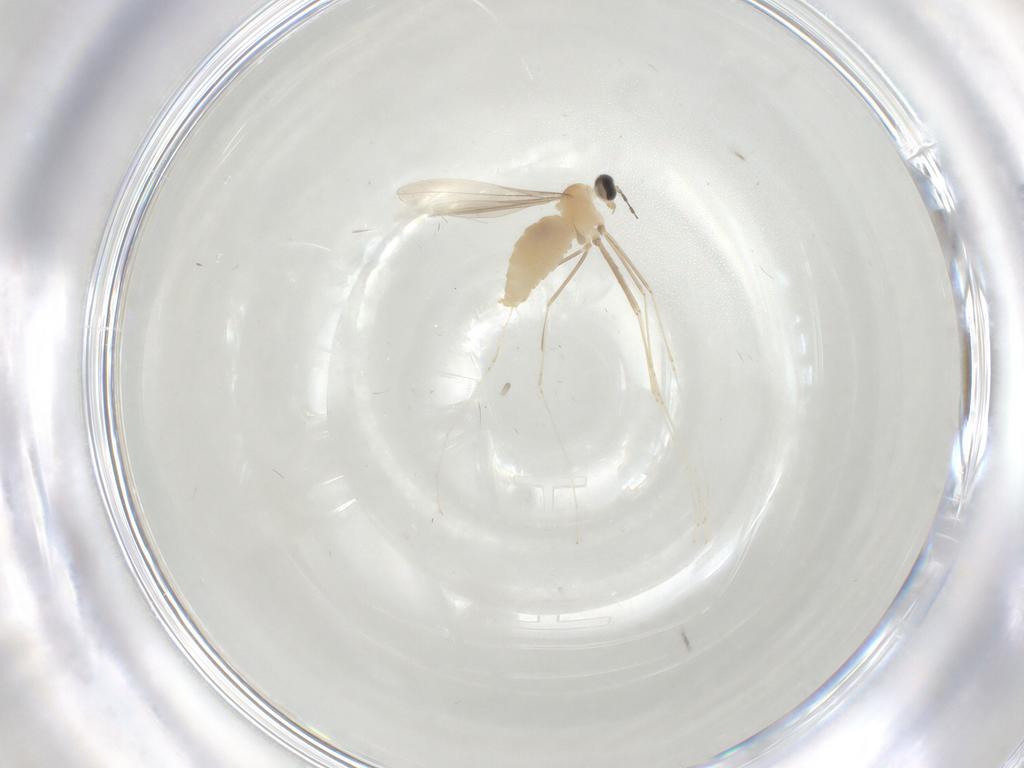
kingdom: Animalia
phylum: Arthropoda
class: Insecta
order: Diptera
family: Cecidomyiidae
